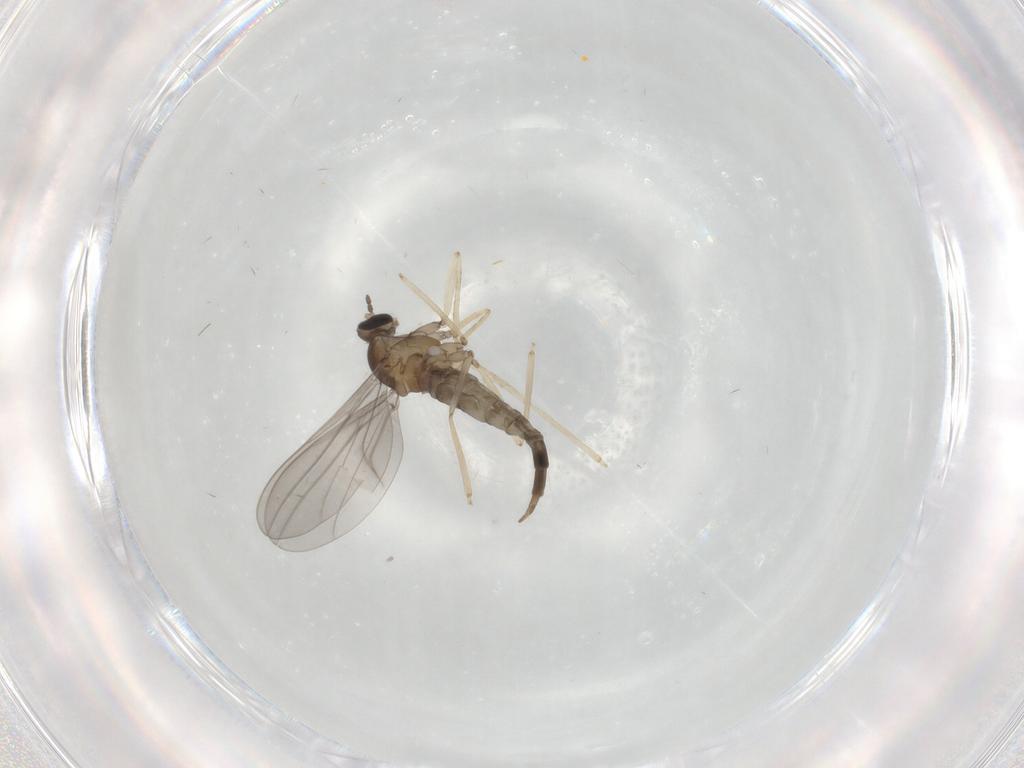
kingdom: Animalia
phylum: Arthropoda
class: Insecta
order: Diptera
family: Cecidomyiidae
